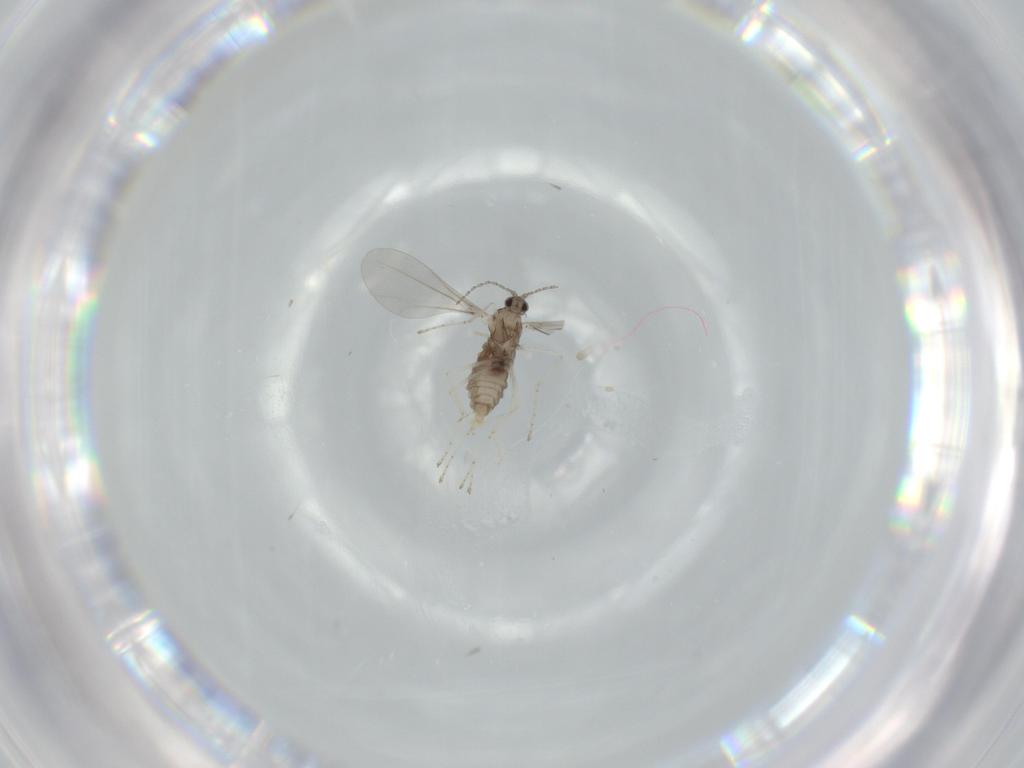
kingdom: Animalia
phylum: Arthropoda
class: Insecta
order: Diptera
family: Cecidomyiidae
